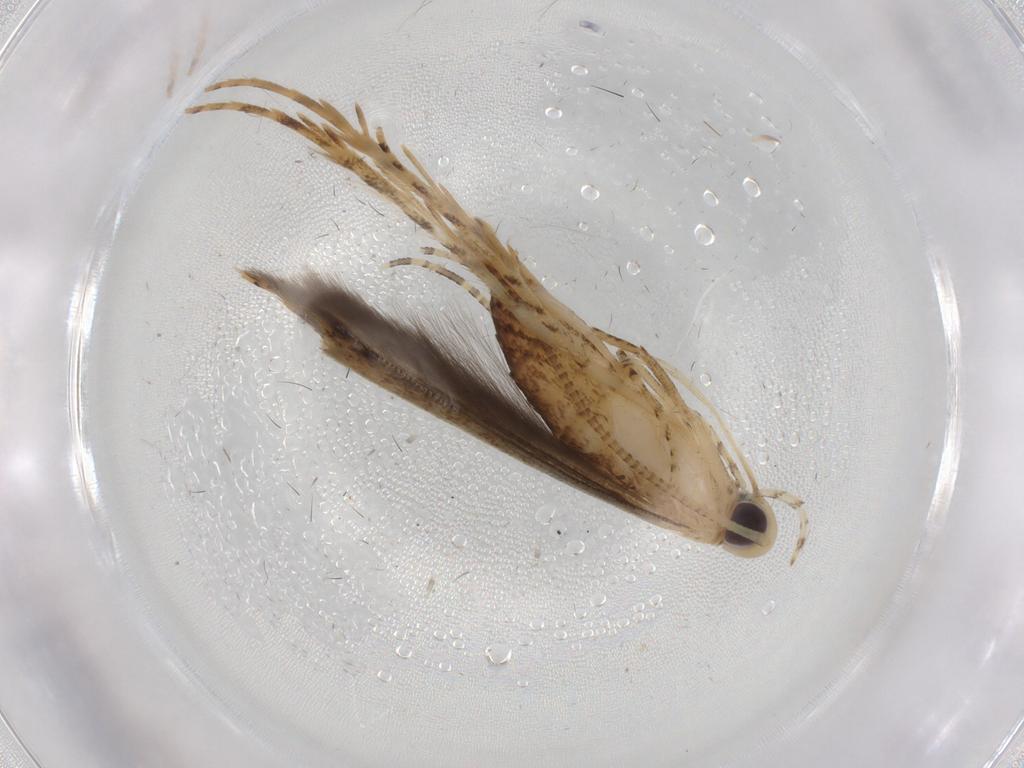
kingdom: Animalia
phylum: Arthropoda
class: Insecta
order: Lepidoptera
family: Batrachedridae
